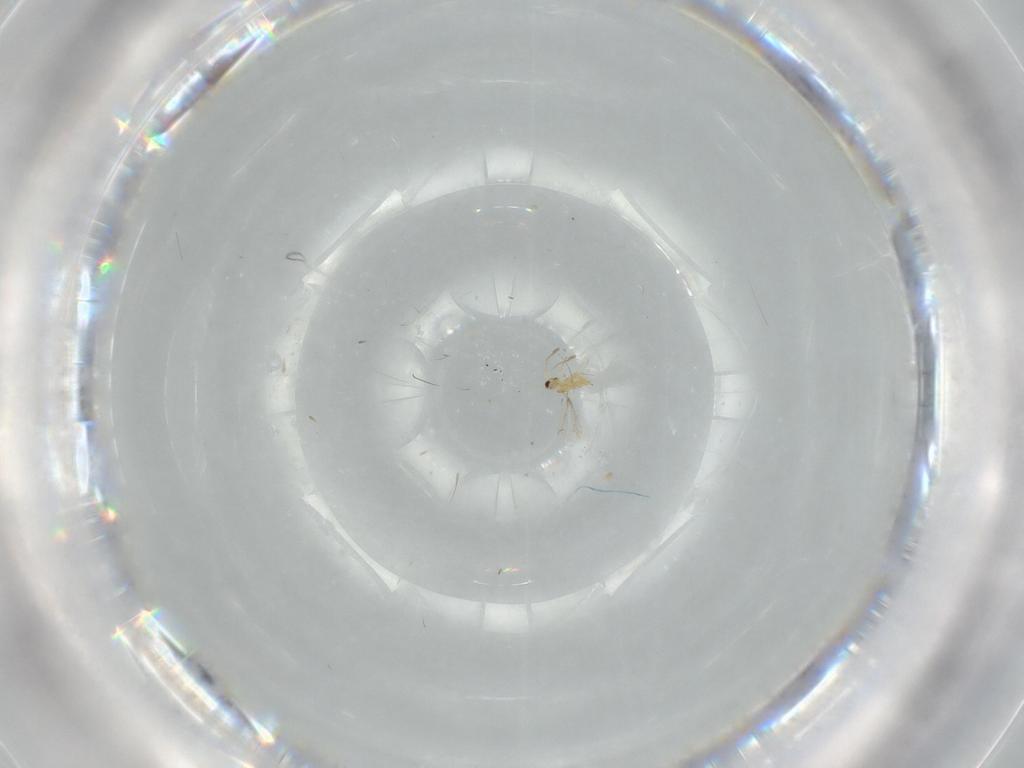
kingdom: Animalia
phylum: Arthropoda
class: Insecta
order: Hymenoptera
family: Mymaridae
